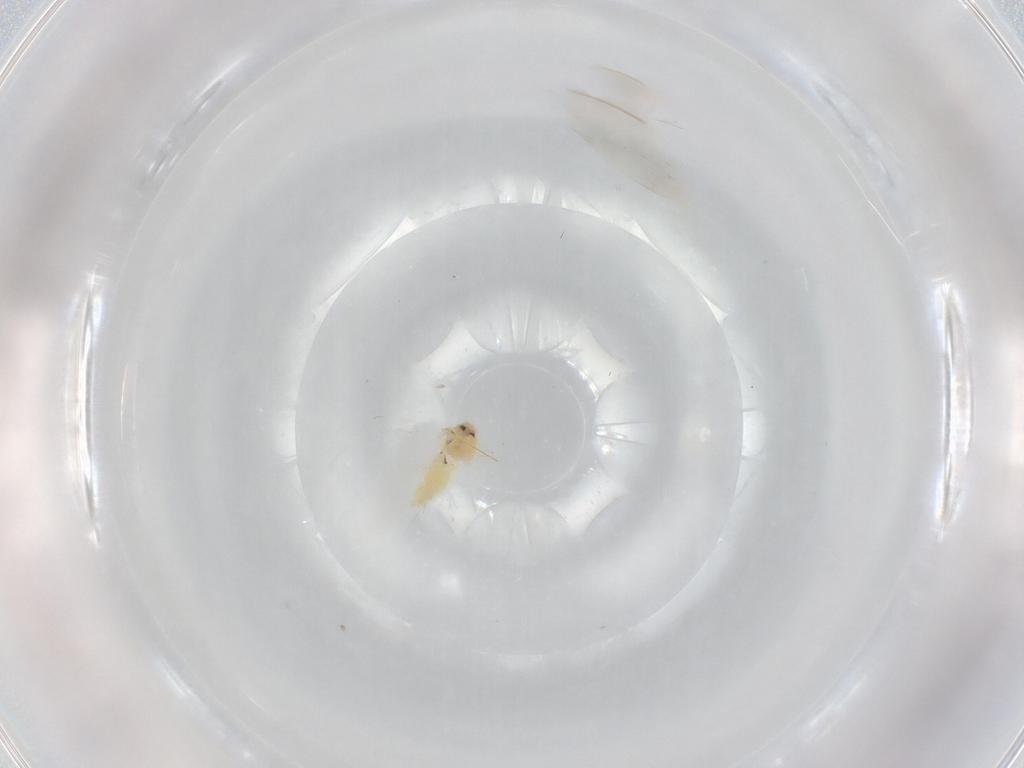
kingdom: Animalia
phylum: Arthropoda
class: Insecta
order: Hemiptera
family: Aleyrodidae
